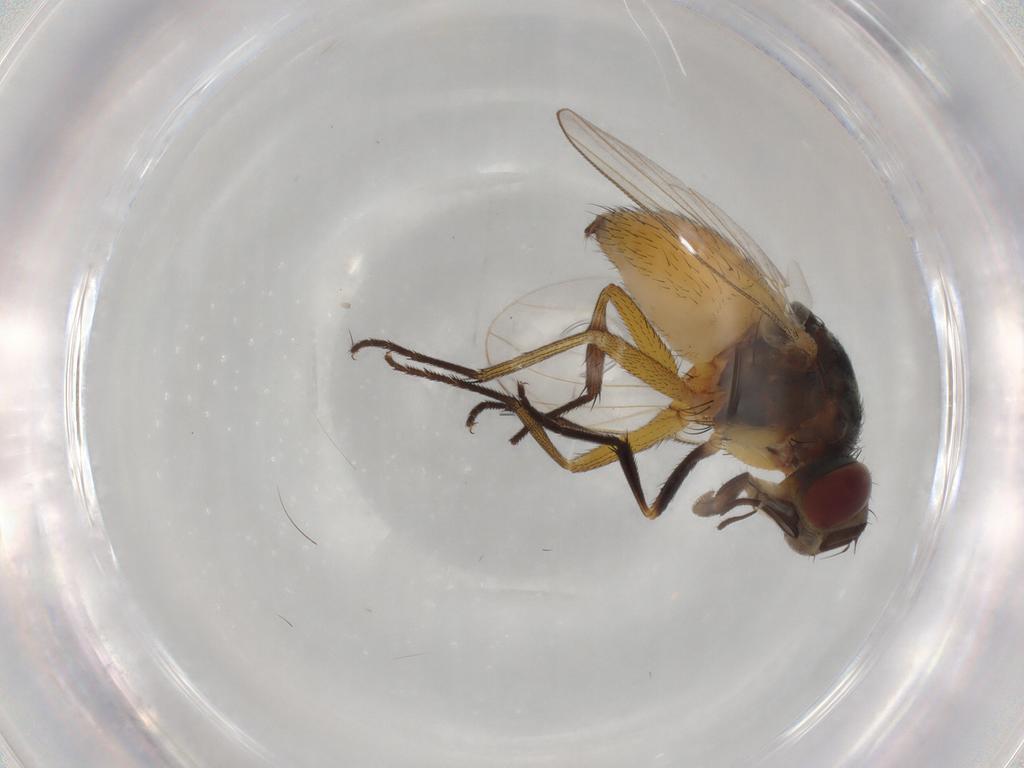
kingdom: Animalia
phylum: Arthropoda
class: Insecta
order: Diptera
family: Muscidae
